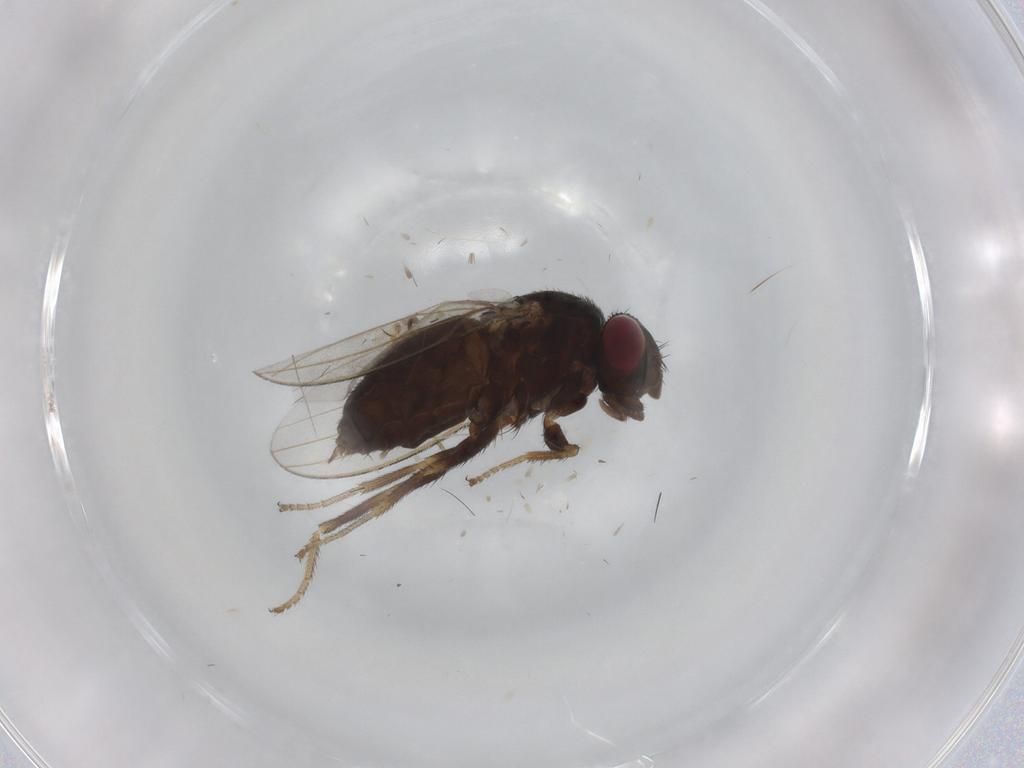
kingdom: Animalia
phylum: Arthropoda
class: Insecta
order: Diptera
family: Milichiidae
